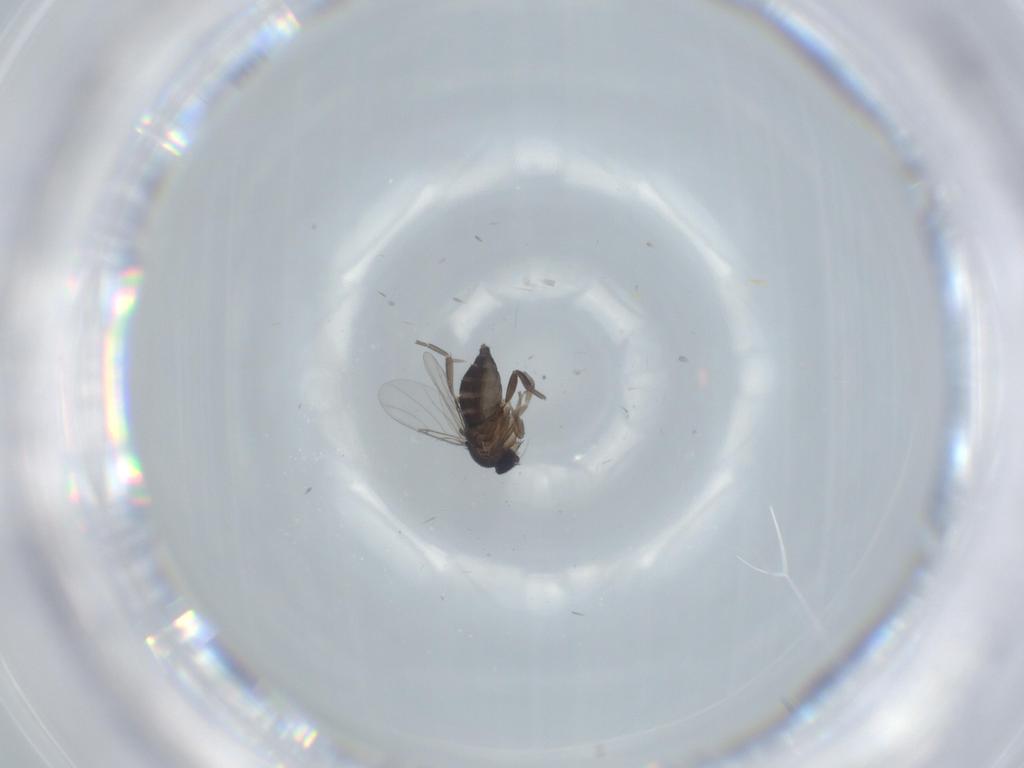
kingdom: Animalia
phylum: Arthropoda
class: Insecta
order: Diptera
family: Phoridae
